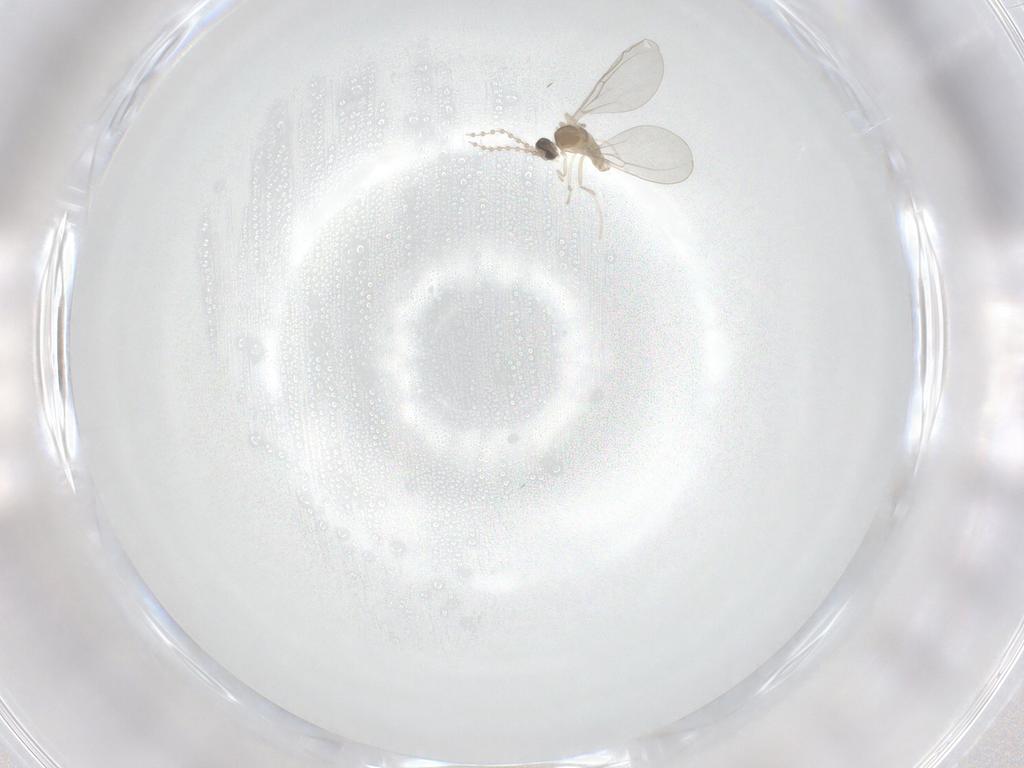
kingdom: Animalia
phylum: Arthropoda
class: Insecta
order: Diptera
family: Cecidomyiidae
